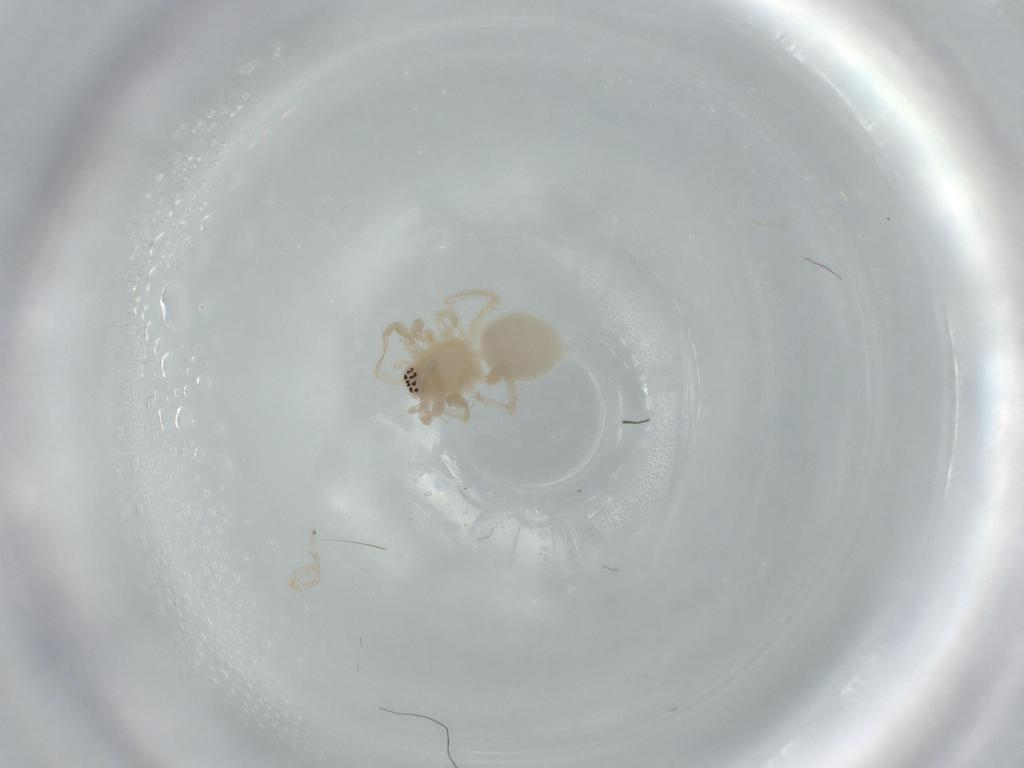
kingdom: Animalia
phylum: Arthropoda
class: Arachnida
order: Araneae
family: Anyphaenidae
